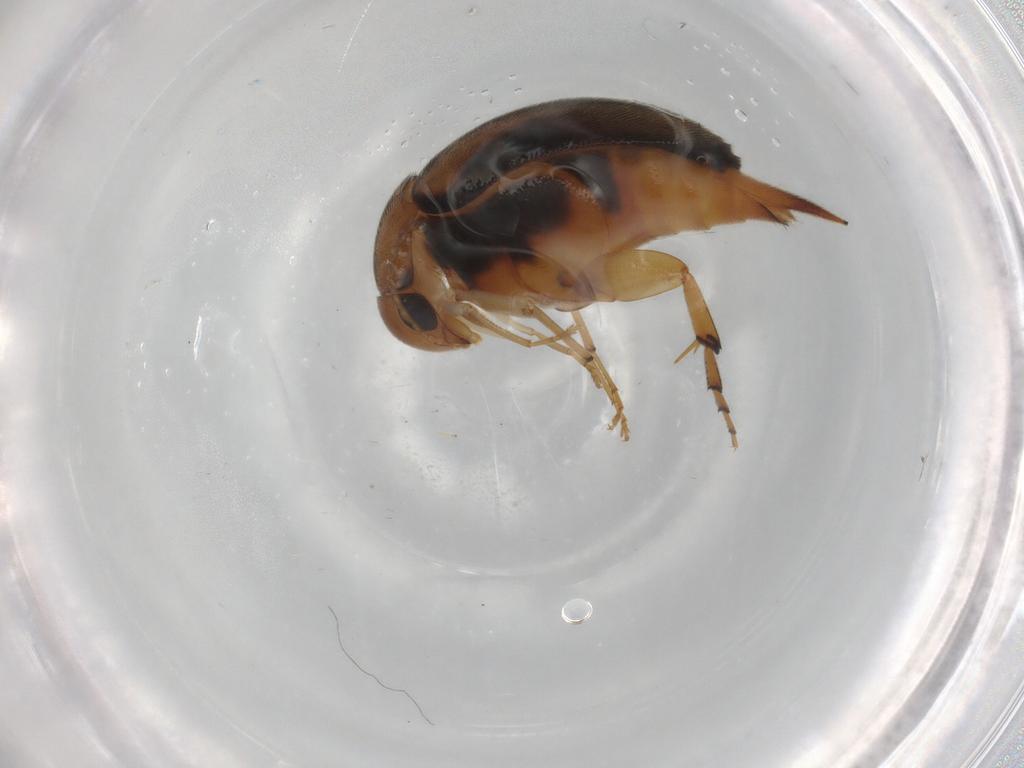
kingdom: Animalia
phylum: Arthropoda
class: Insecta
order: Coleoptera
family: Mordellidae
